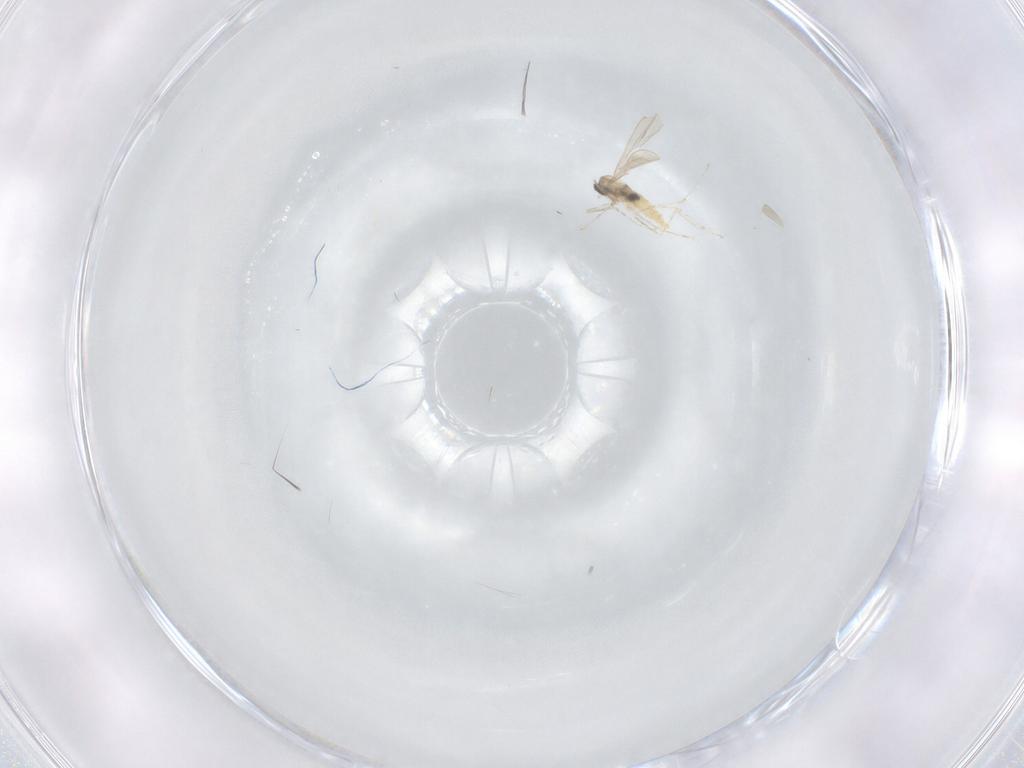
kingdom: Animalia
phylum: Arthropoda
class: Insecta
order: Diptera
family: Cecidomyiidae
